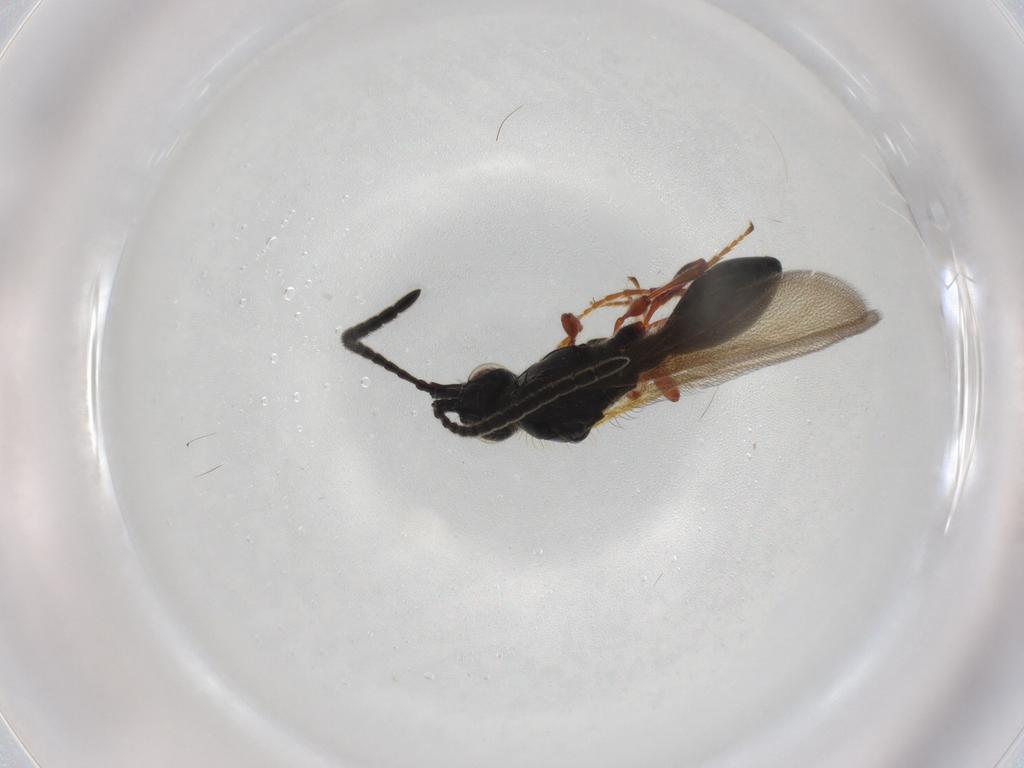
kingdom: Animalia
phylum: Arthropoda
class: Insecta
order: Hymenoptera
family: Diapriidae
